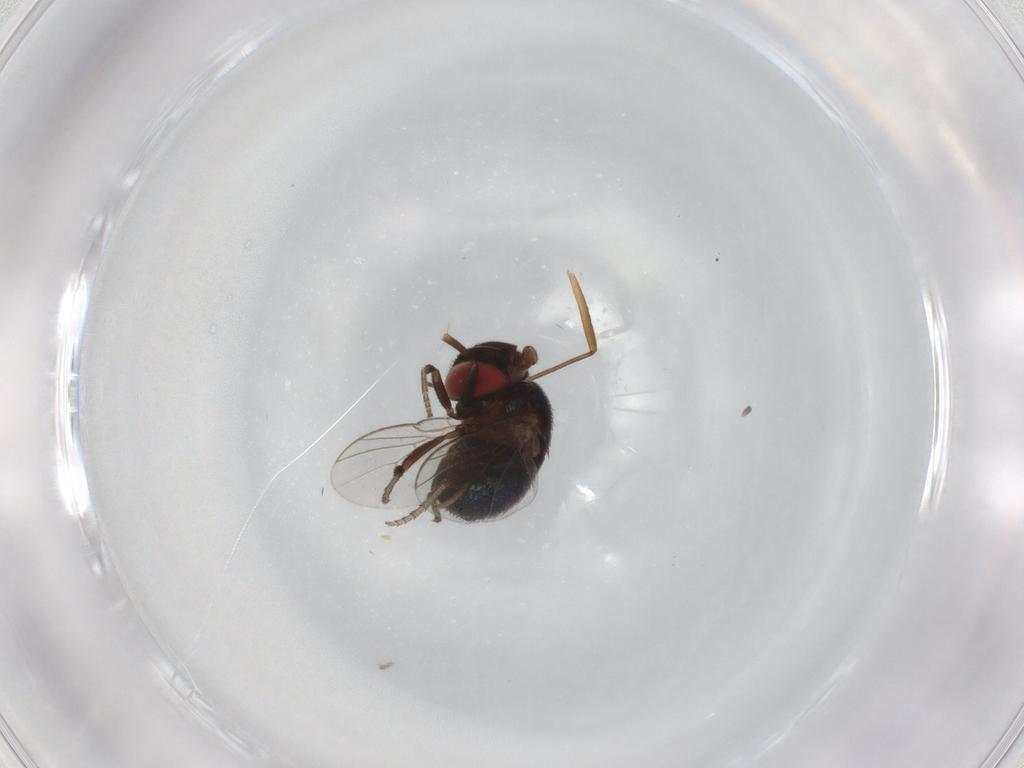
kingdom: Animalia
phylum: Arthropoda
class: Insecta
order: Diptera
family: Cryptochetidae
